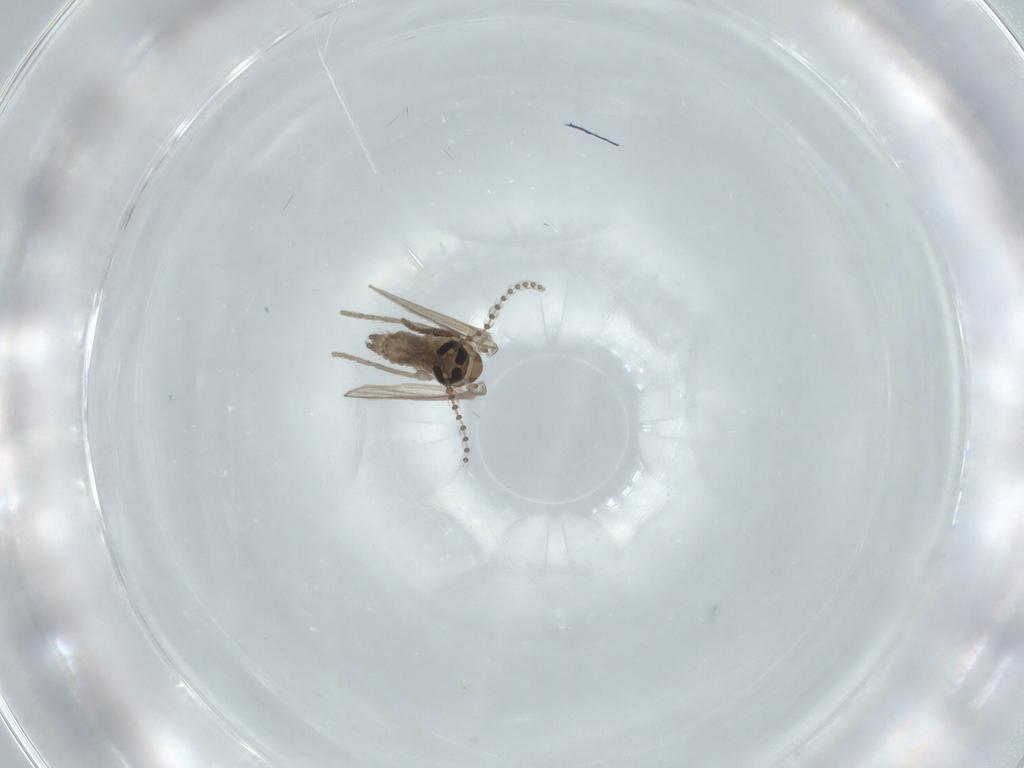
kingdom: Animalia
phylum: Arthropoda
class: Insecta
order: Diptera
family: Phoridae
